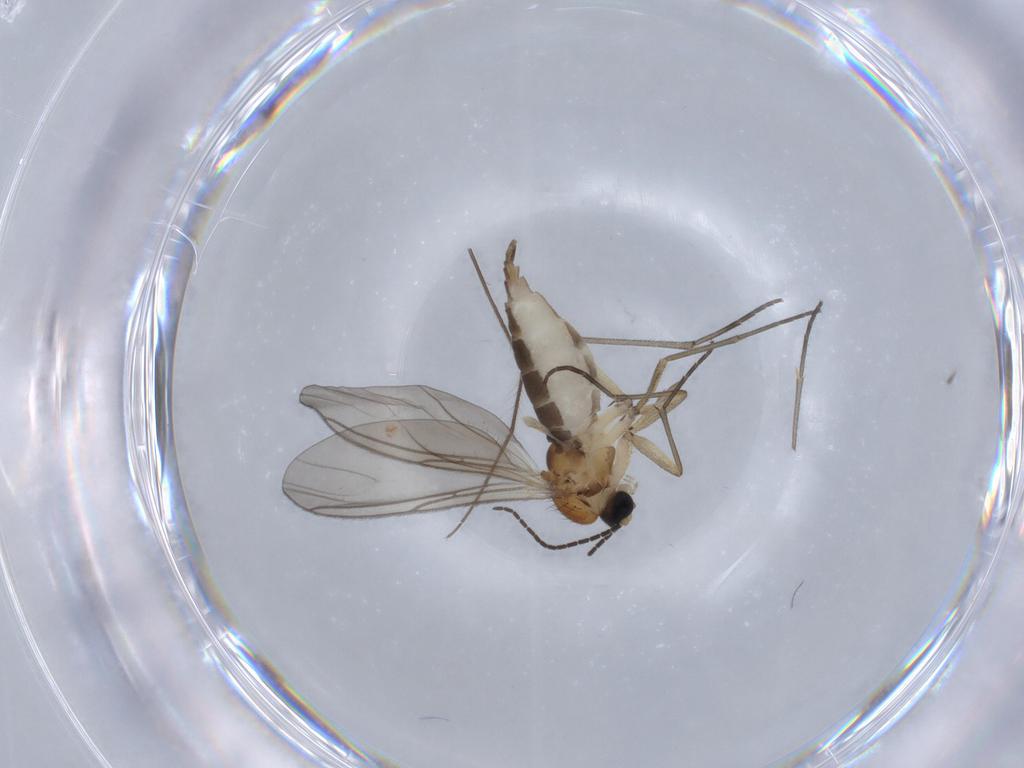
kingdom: Animalia
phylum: Arthropoda
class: Insecta
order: Diptera
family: Sciaridae
